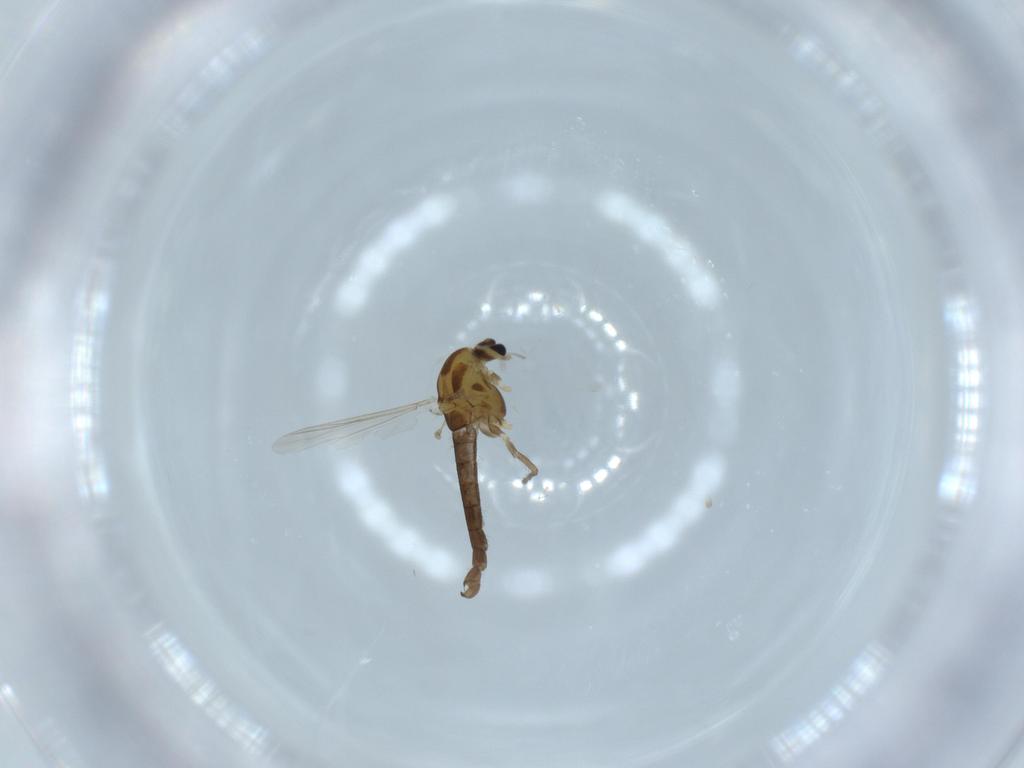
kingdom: Animalia
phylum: Arthropoda
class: Insecta
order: Diptera
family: Chironomidae
